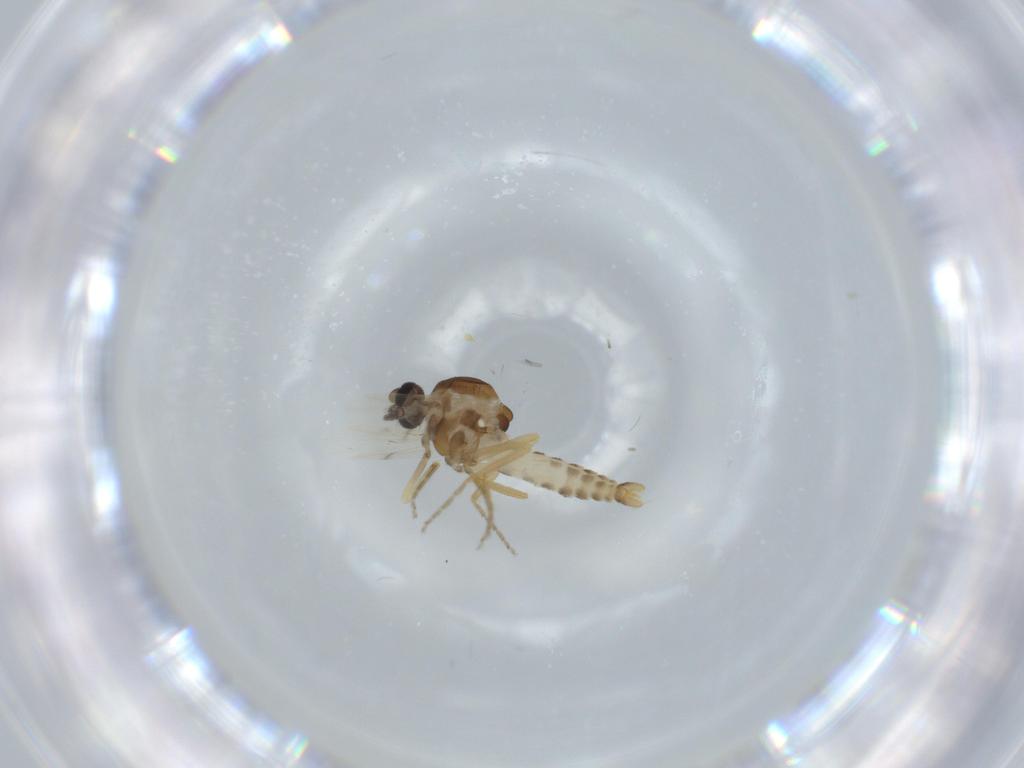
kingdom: Animalia
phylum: Arthropoda
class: Insecta
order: Diptera
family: Ceratopogonidae
